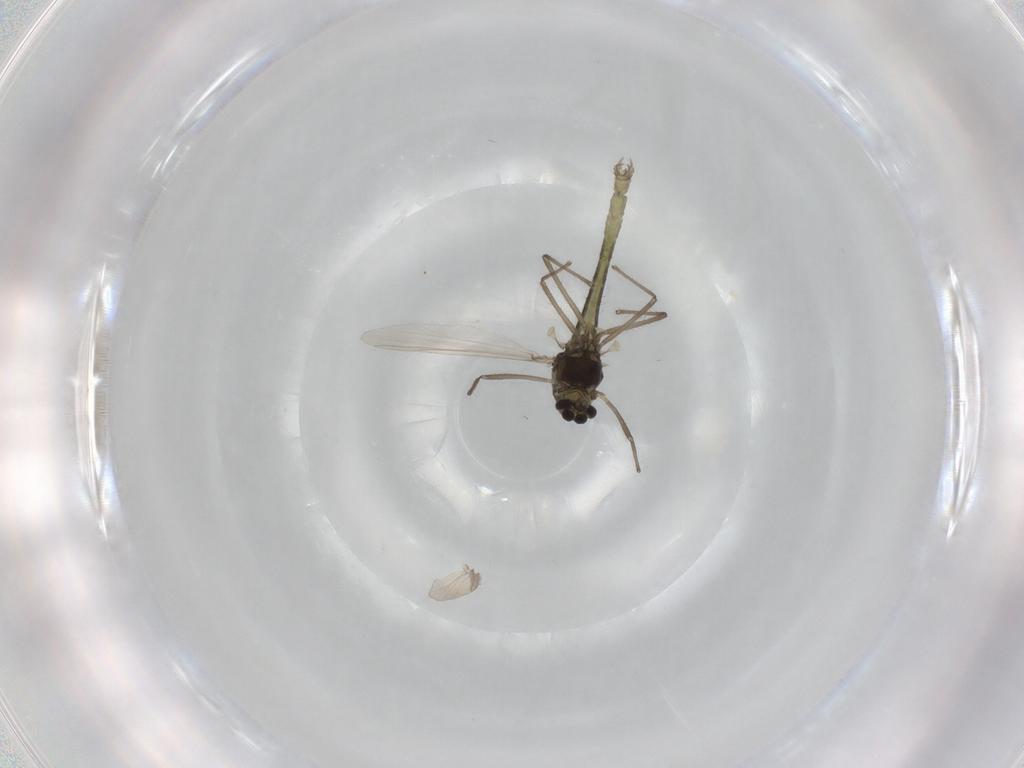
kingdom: Animalia
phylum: Arthropoda
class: Insecta
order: Diptera
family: Chironomidae
